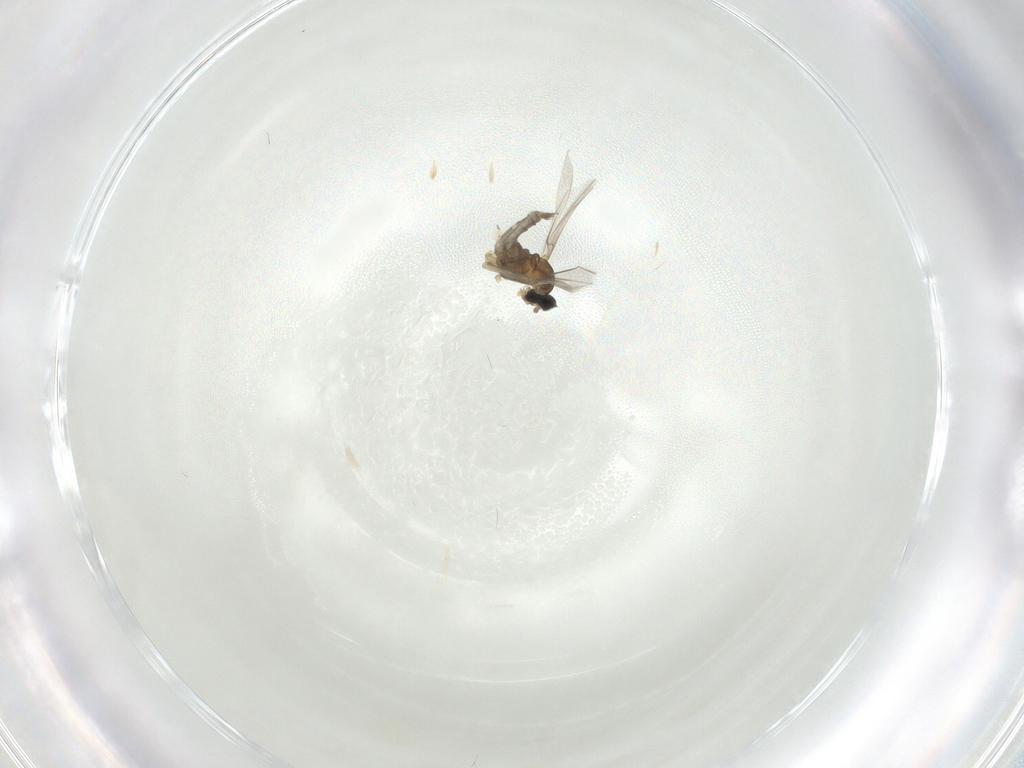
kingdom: Animalia
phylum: Arthropoda
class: Insecta
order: Diptera
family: Cecidomyiidae
